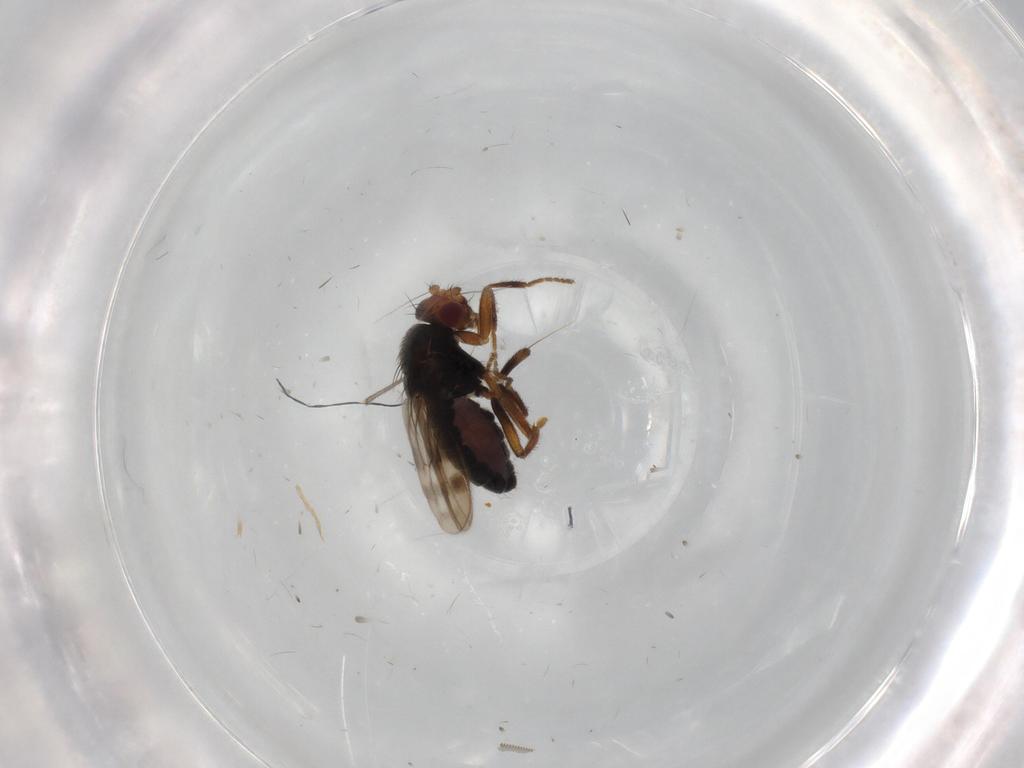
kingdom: Animalia
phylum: Arthropoda
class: Insecta
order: Diptera
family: Sphaeroceridae
